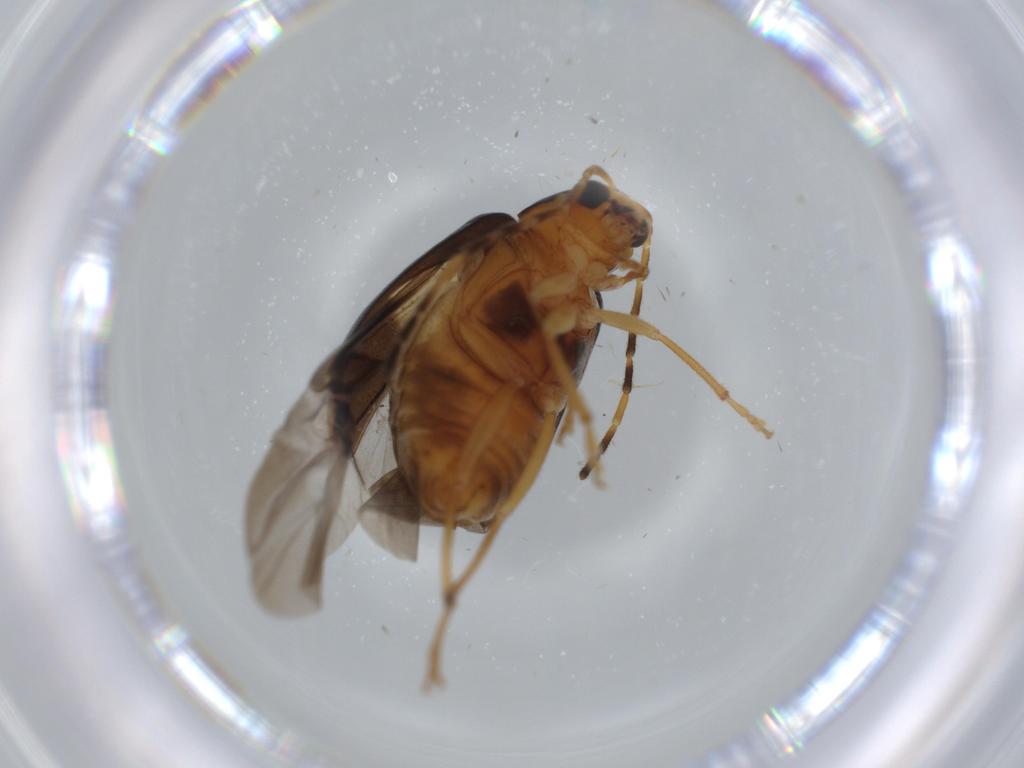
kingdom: Animalia
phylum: Arthropoda
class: Insecta
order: Coleoptera
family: Chrysomelidae
